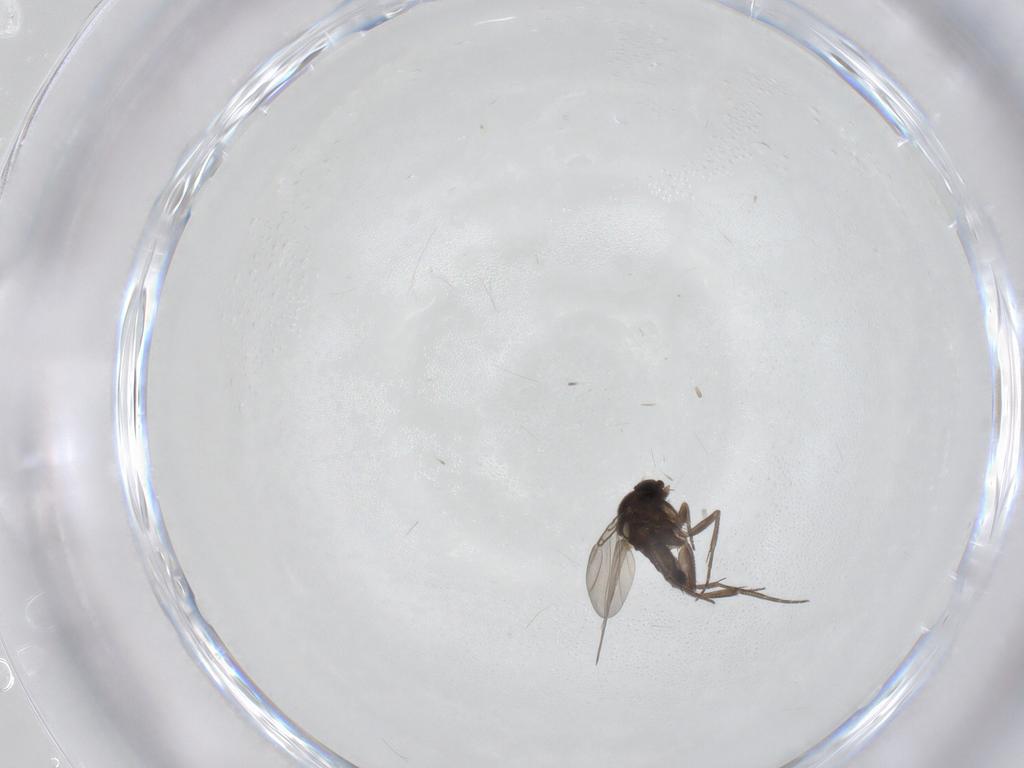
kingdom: Animalia
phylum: Arthropoda
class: Insecta
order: Diptera
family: Phoridae
